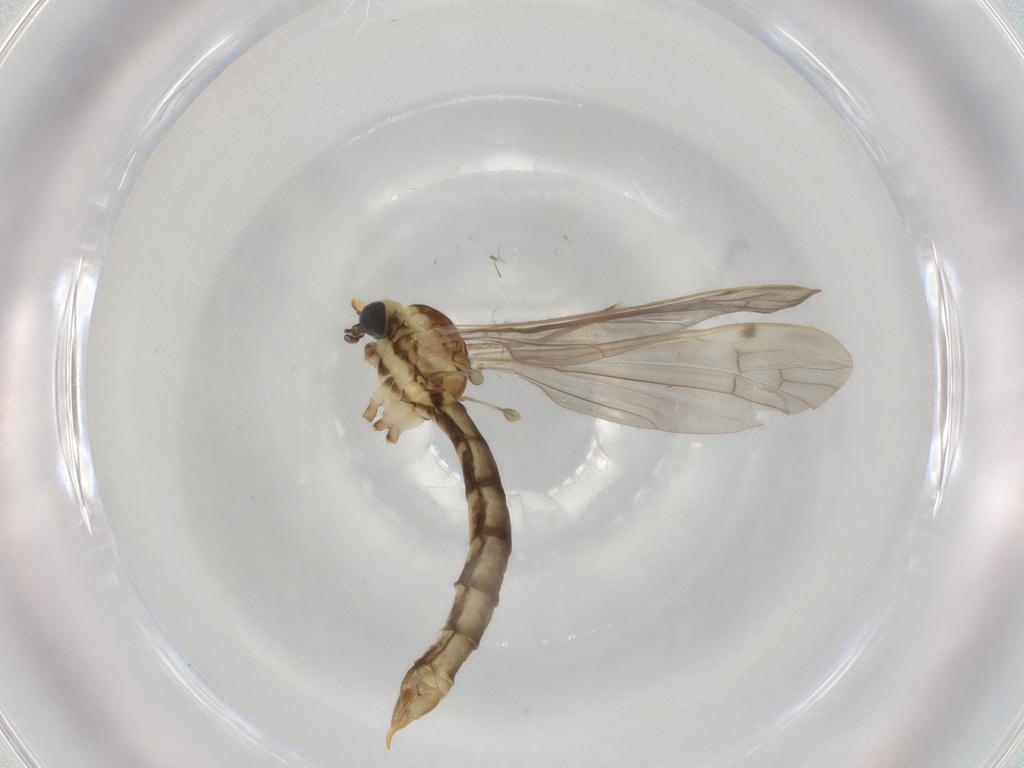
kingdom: Animalia
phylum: Arthropoda
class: Insecta
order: Diptera
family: Limoniidae
